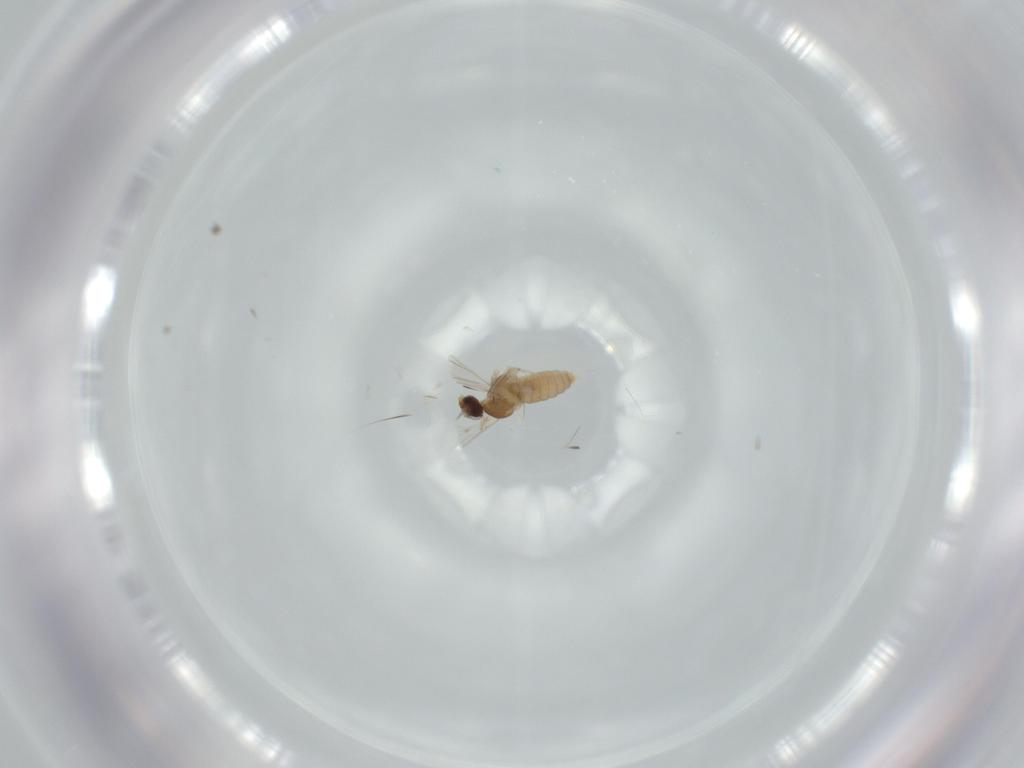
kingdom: Animalia
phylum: Arthropoda
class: Insecta
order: Diptera
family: Cecidomyiidae
